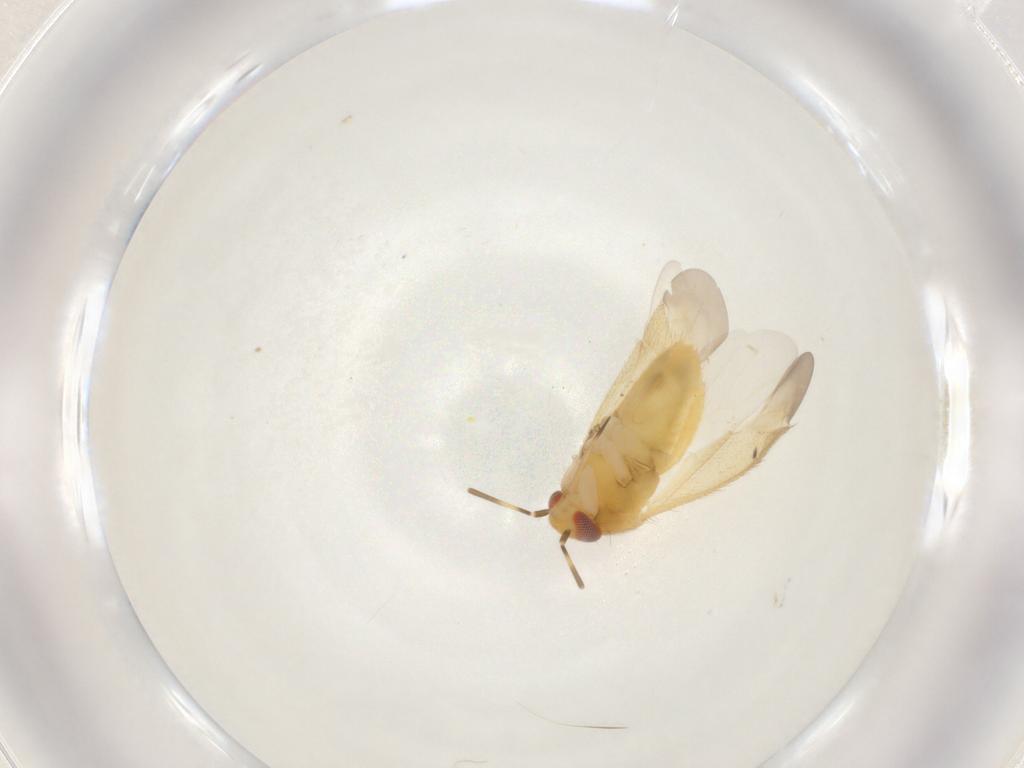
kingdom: Animalia
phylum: Arthropoda
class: Insecta
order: Hemiptera
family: Miridae
